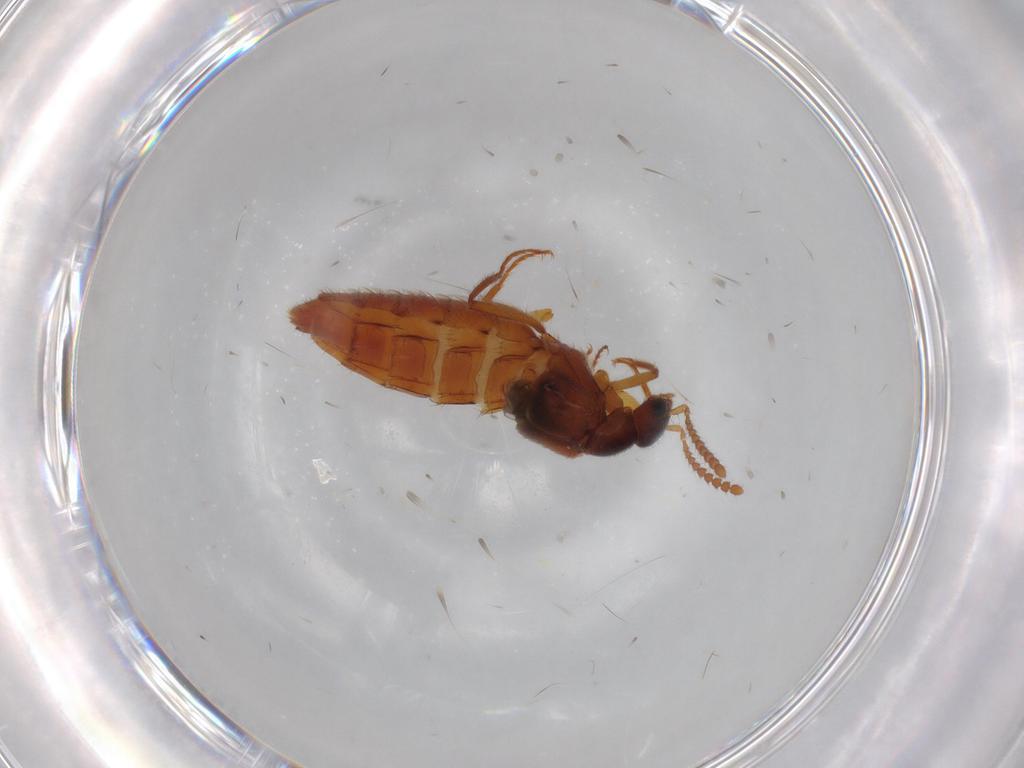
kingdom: Animalia
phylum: Arthropoda
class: Insecta
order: Coleoptera
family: Staphylinidae
